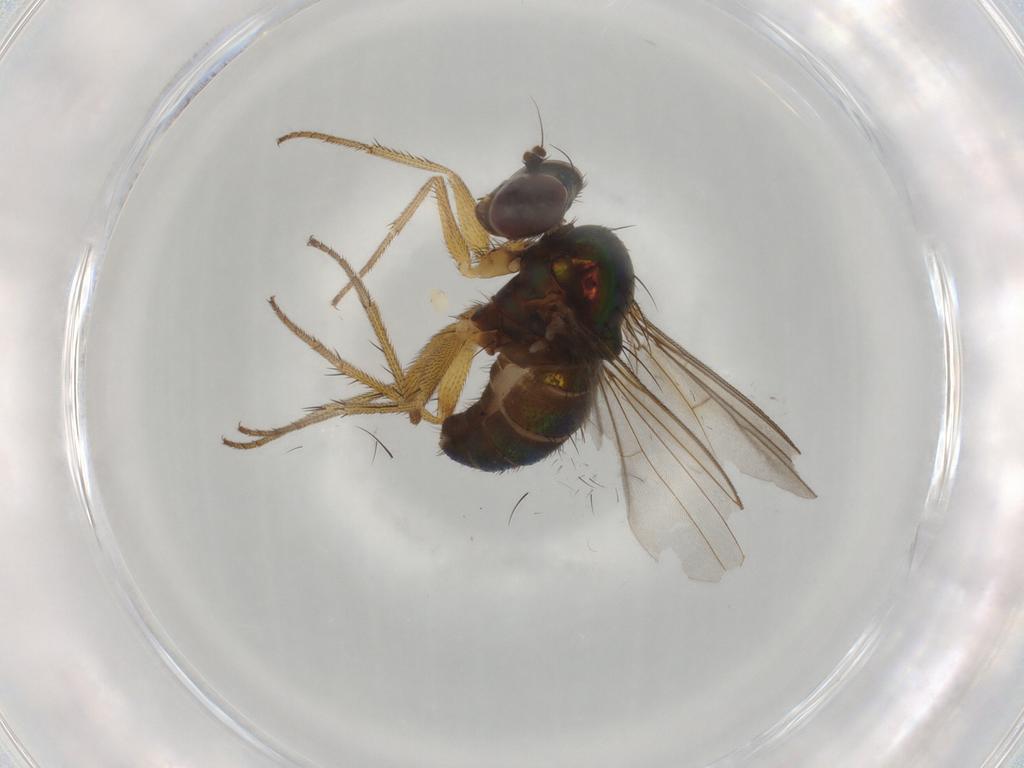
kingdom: Animalia
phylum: Arthropoda
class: Insecta
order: Diptera
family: Dolichopodidae
